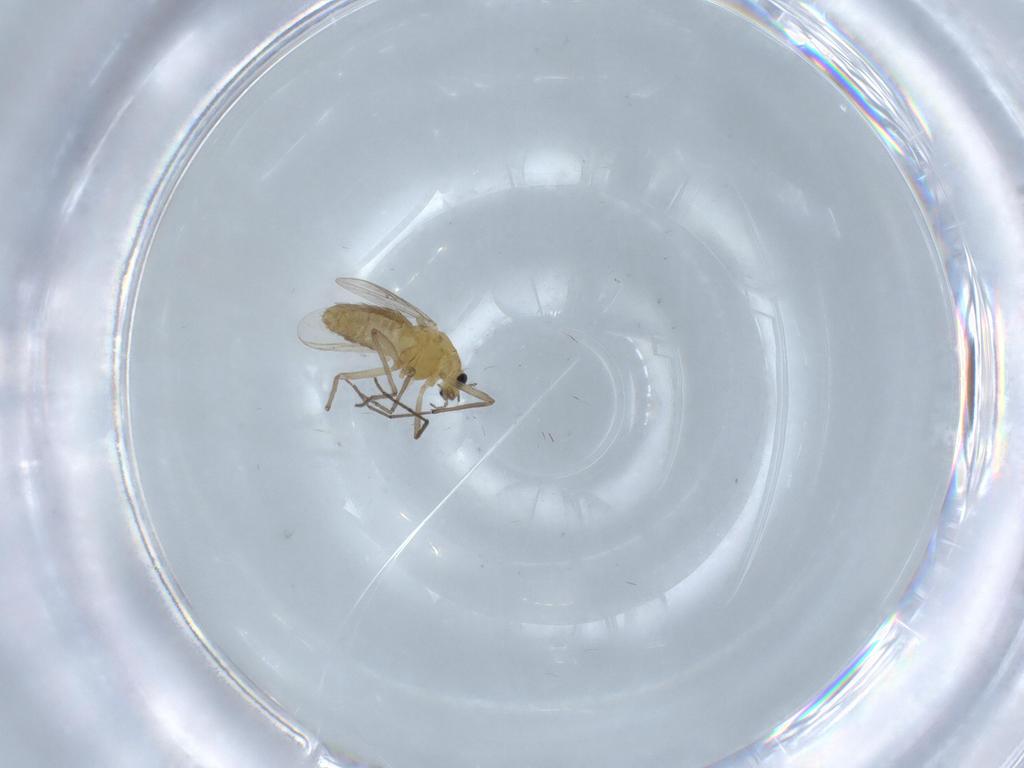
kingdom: Animalia
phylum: Arthropoda
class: Insecta
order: Diptera
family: Chironomidae
